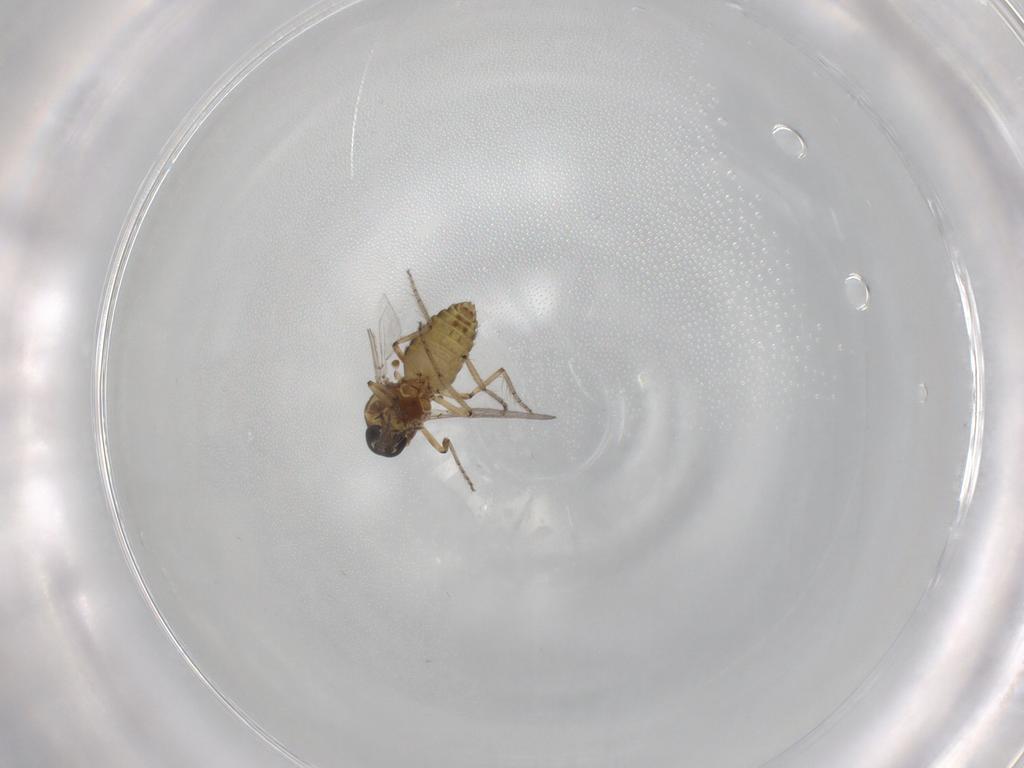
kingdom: Animalia
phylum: Arthropoda
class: Insecta
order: Diptera
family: Ceratopogonidae
